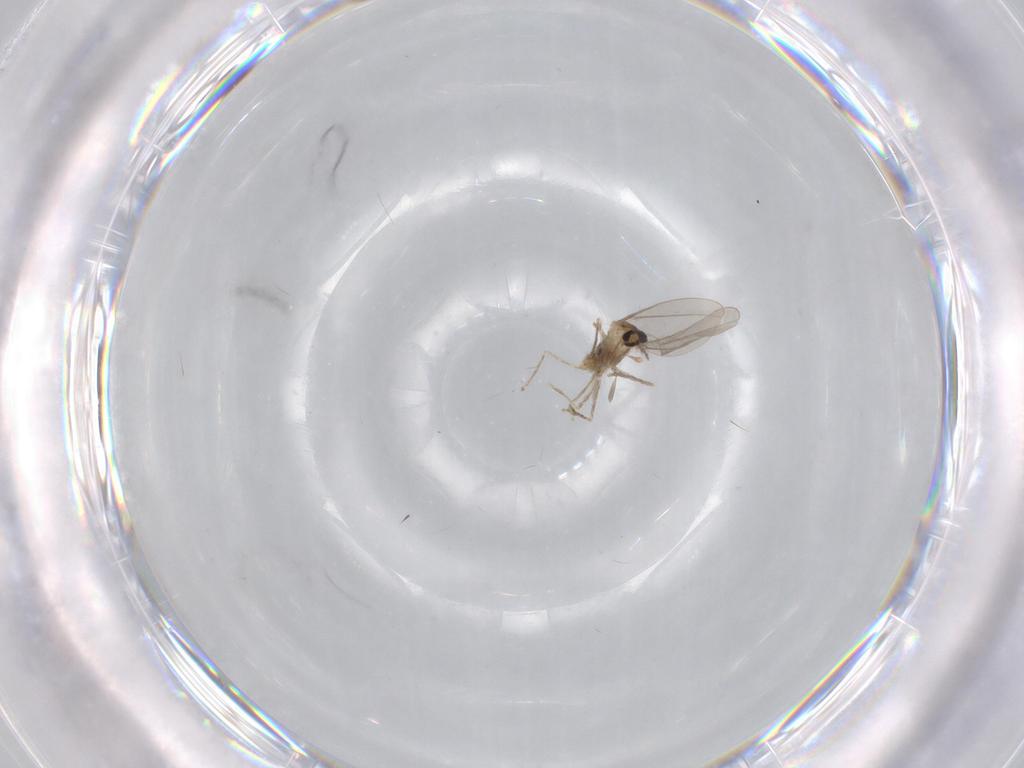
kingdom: Animalia
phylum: Arthropoda
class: Insecta
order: Diptera
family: Cecidomyiidae
